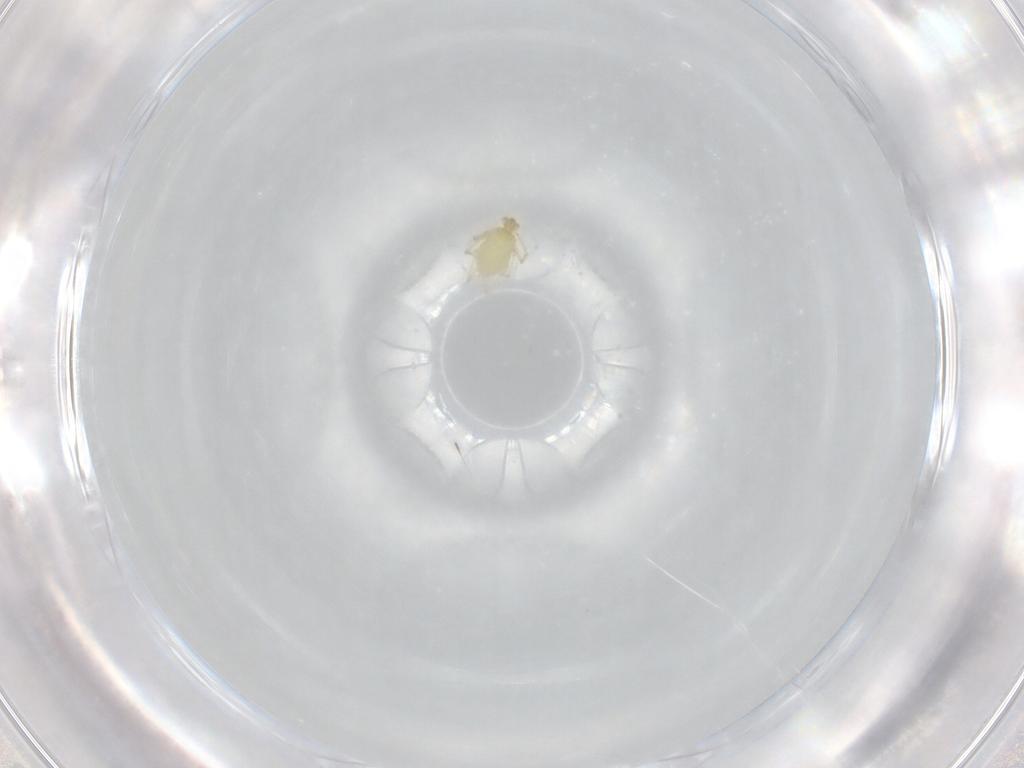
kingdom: Animalia
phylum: Arthropoda
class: Arachnida
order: Trombidiformes
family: Erythraeidae
